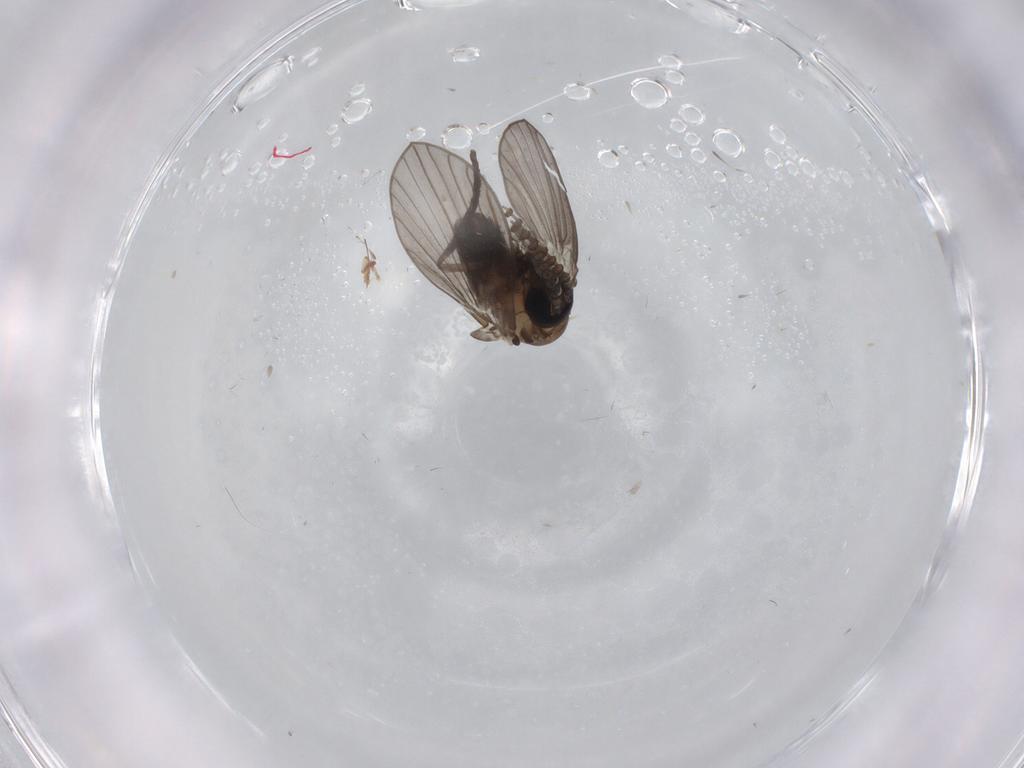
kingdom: Animalia
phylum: Arthropoda
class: Insecta
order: Diptera
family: Psychodidae
